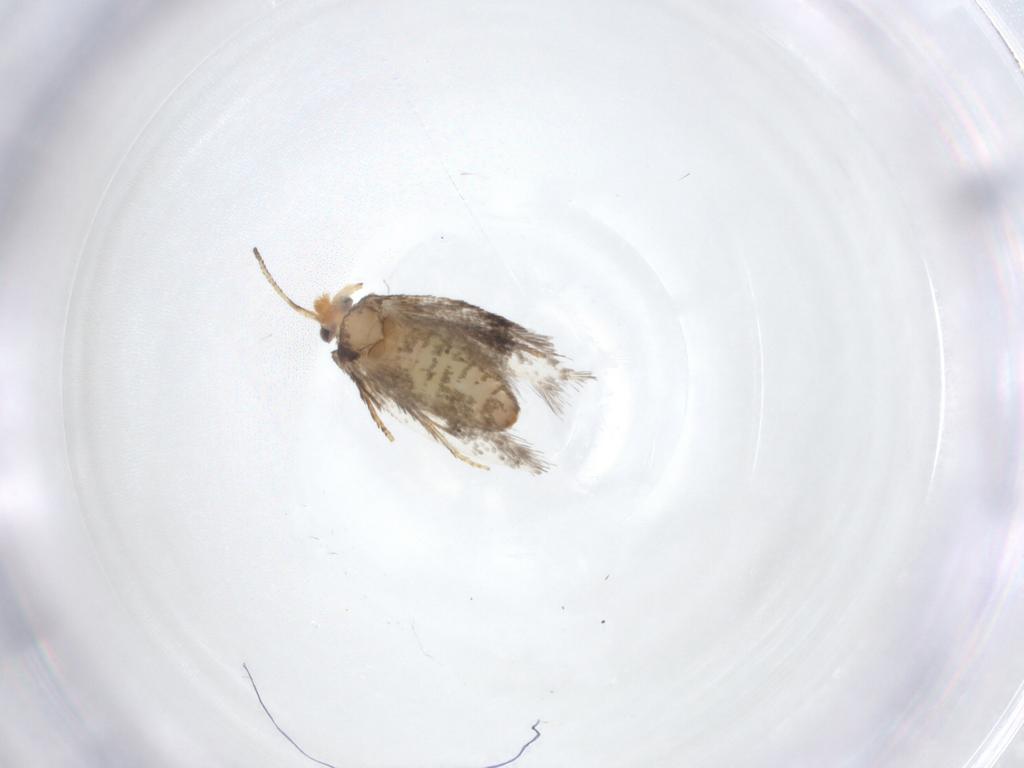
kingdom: Animalia
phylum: Arthropoda
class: Insecta
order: Lepidoptera
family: Nepticulidae
